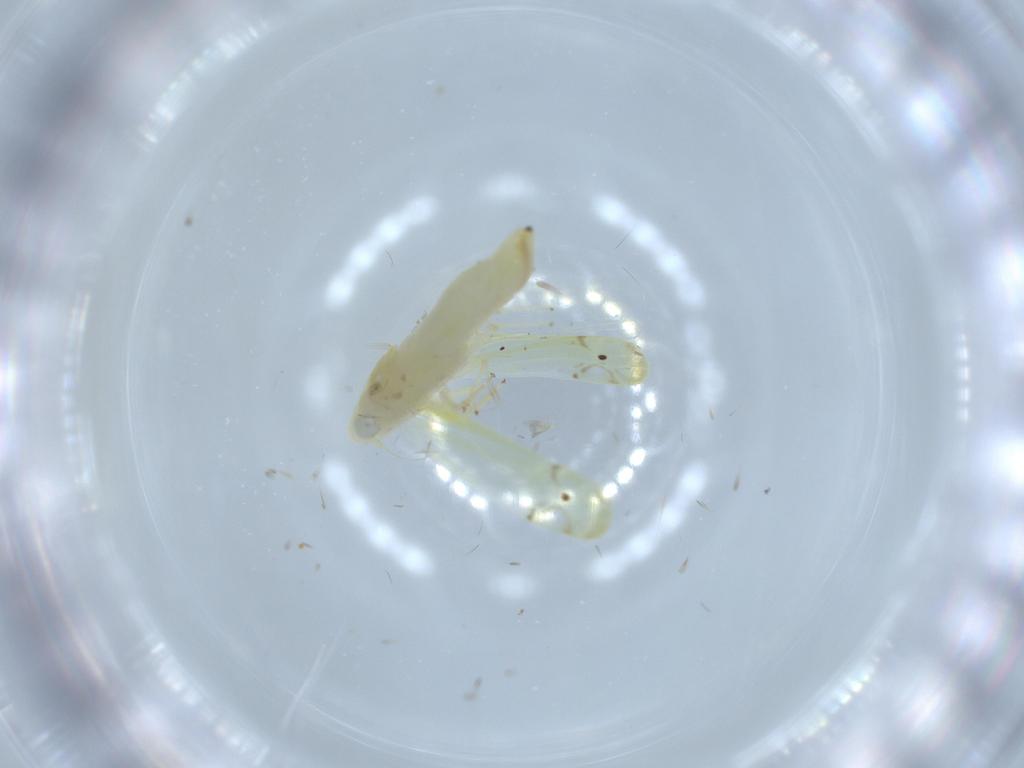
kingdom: Animalia
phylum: Arthropoda
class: Insecta
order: Hemiptera
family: Cicadellidae
